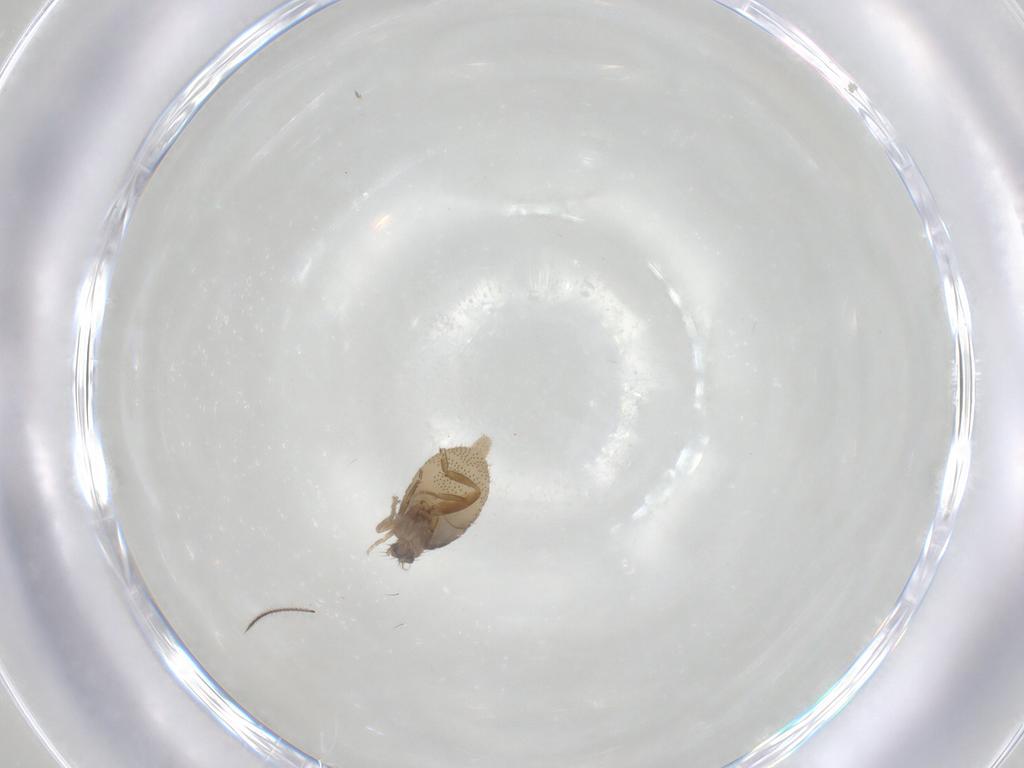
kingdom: Animalia
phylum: Arthropoda
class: Insecta
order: Diptera
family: Phoridae
